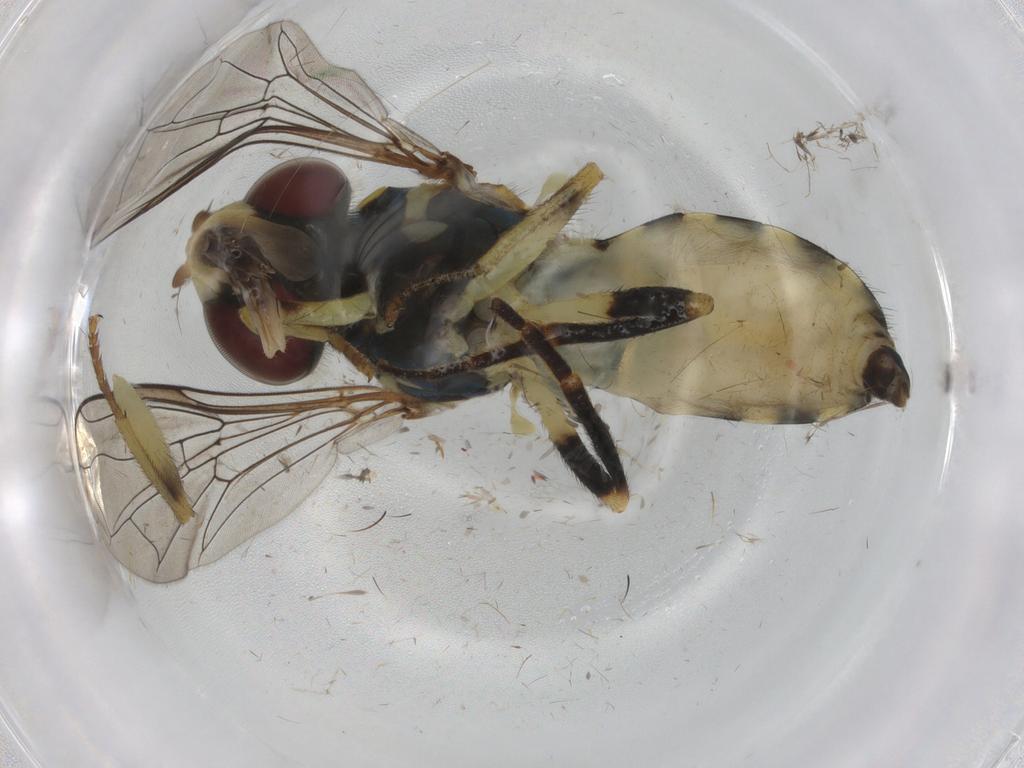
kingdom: Animalia
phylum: Arthropoda
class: Insecta
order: Diptera
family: Syrphidae
